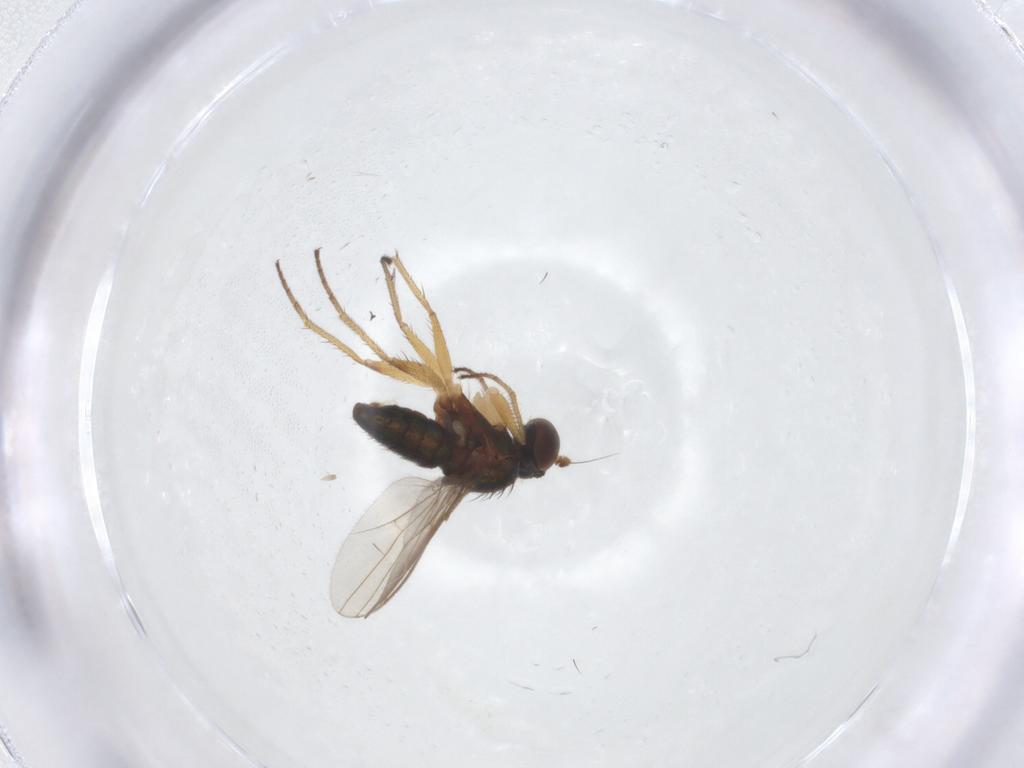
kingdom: Animalia
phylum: Arthropoda
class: Insecta
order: Diptera
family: Dolichopodidae
